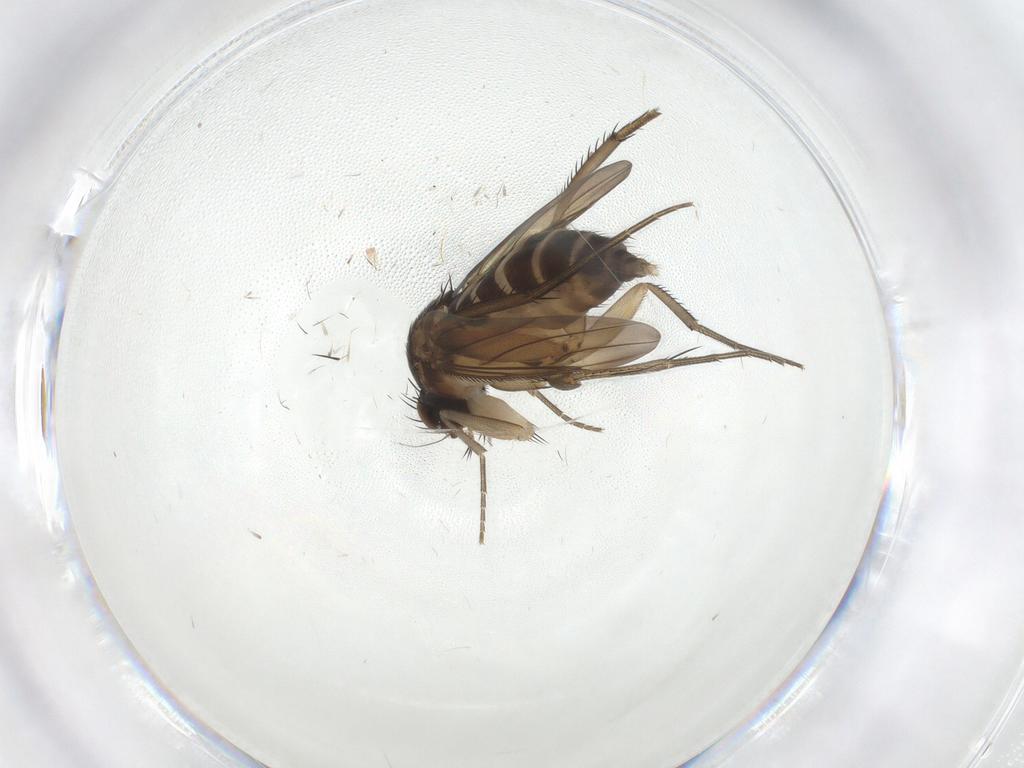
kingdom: Animalia
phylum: Arthropoda
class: Insecta
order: Diptera
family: Phoridae
